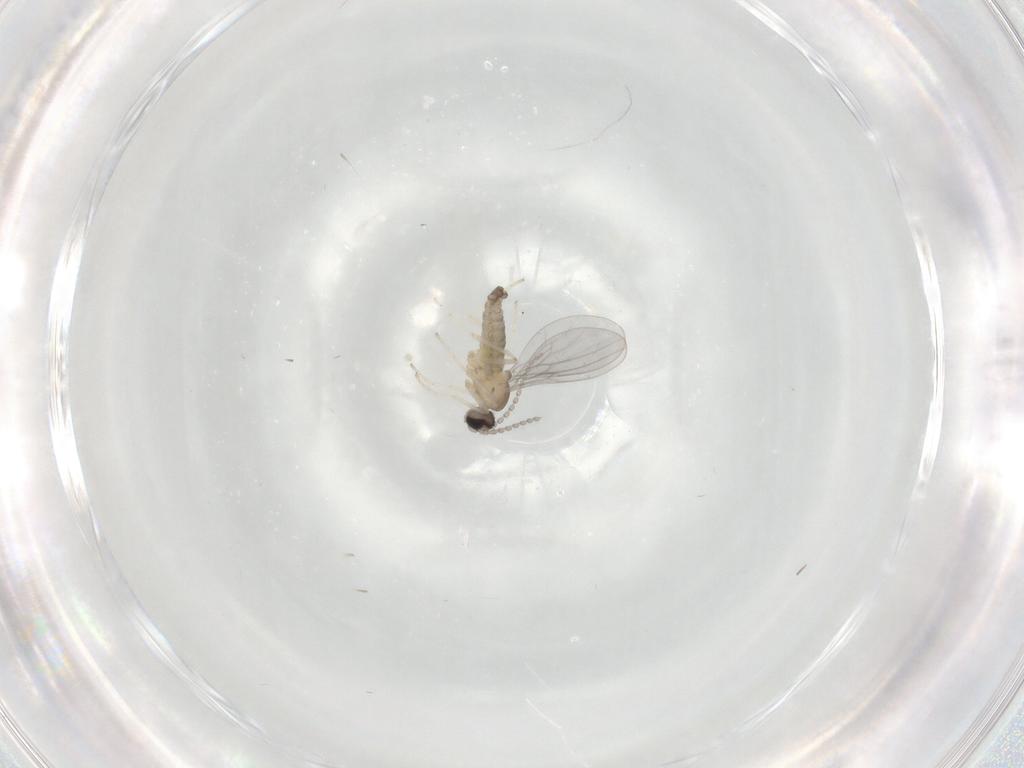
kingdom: Animalia
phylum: Arthropoda
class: Insecta
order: Diptera
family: Cecidomyiidae
